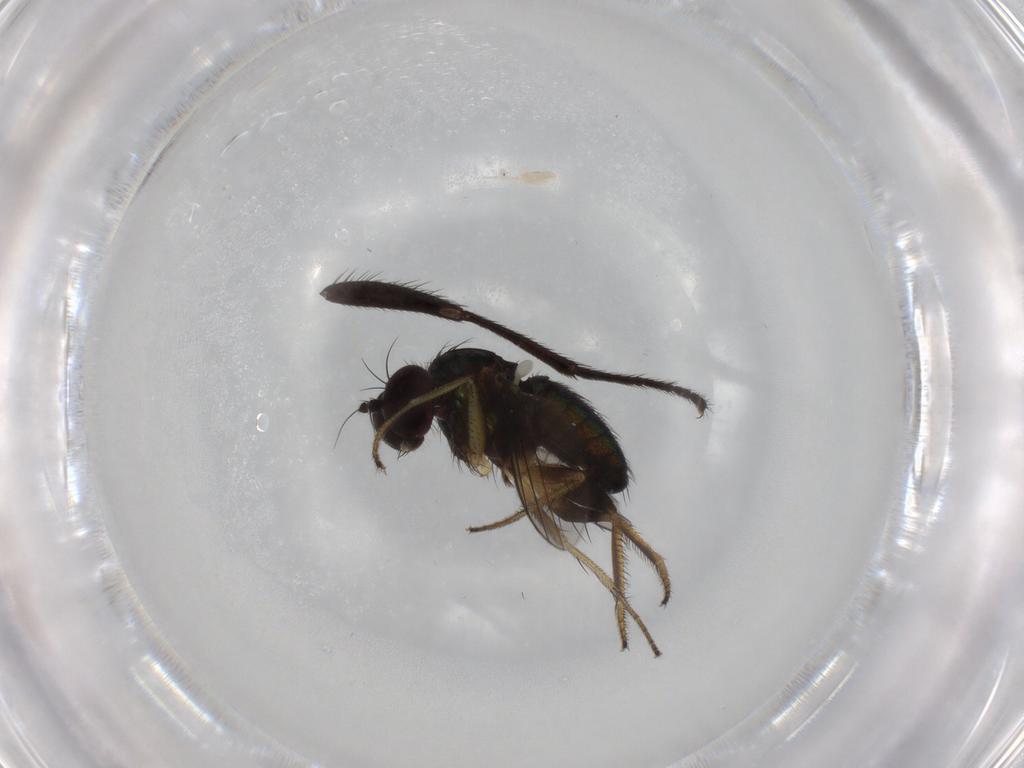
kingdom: Animalia
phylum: Arthropoda
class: Insecta
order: Diptera
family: Dolichopodidae
